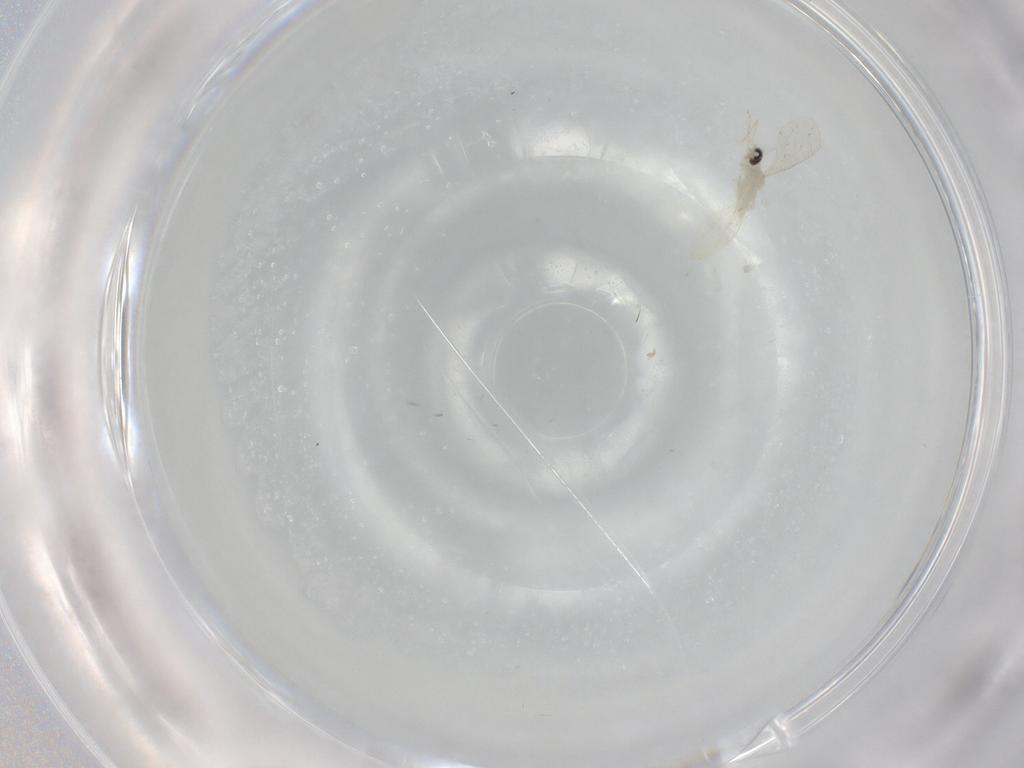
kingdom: Animalia
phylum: Arthropoda
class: Insecta
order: Diptera
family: Cecidomyiidae
